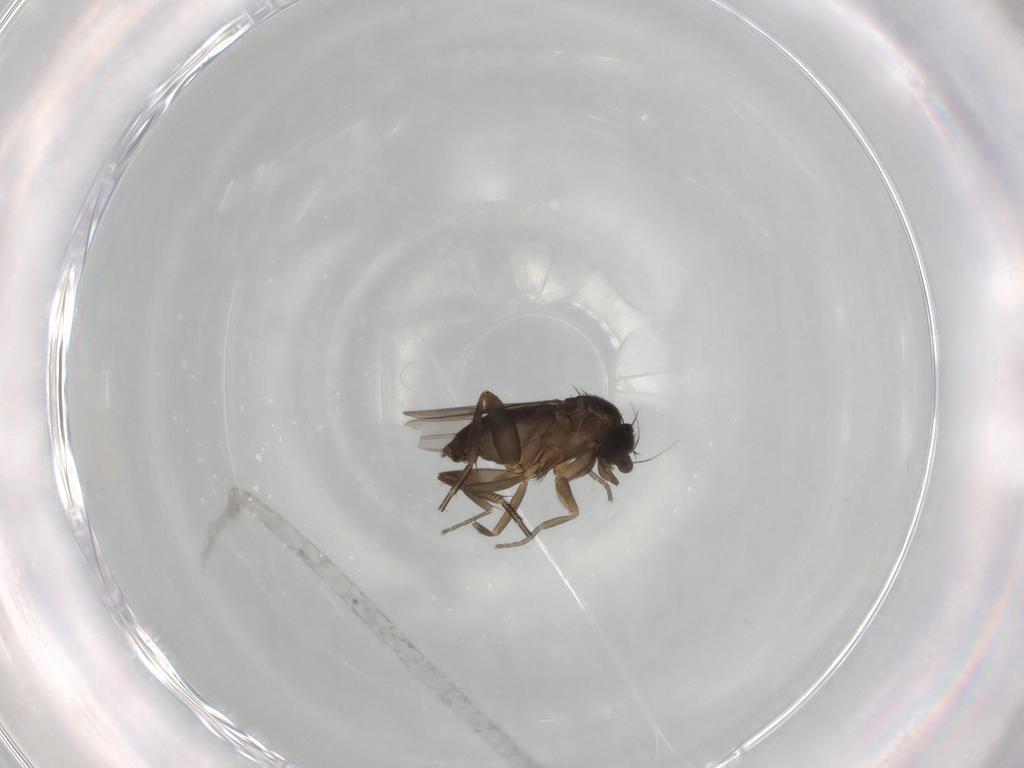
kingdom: Animalia
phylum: Arthropoda
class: Insecta
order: Diptera
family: Phoridae
